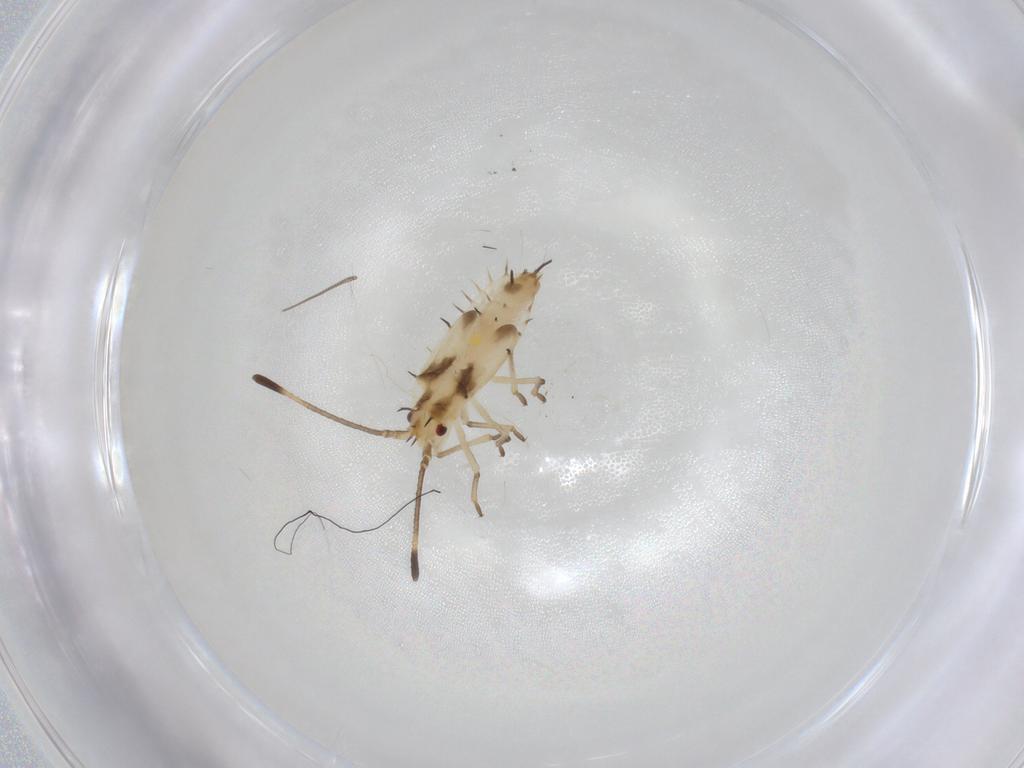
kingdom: Animalia
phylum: Arthropoda
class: Insecta
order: Hemiptera
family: Tingidae
